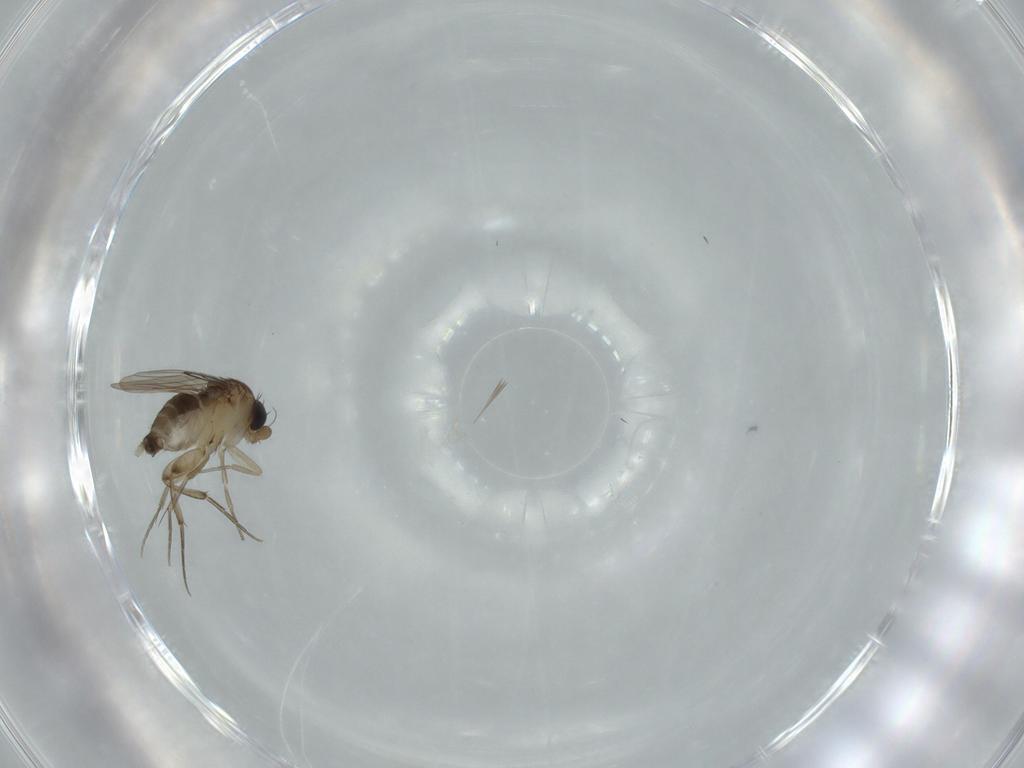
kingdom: Animalia
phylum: Arthropoda
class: Insecta
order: Diptera
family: Phoridae
